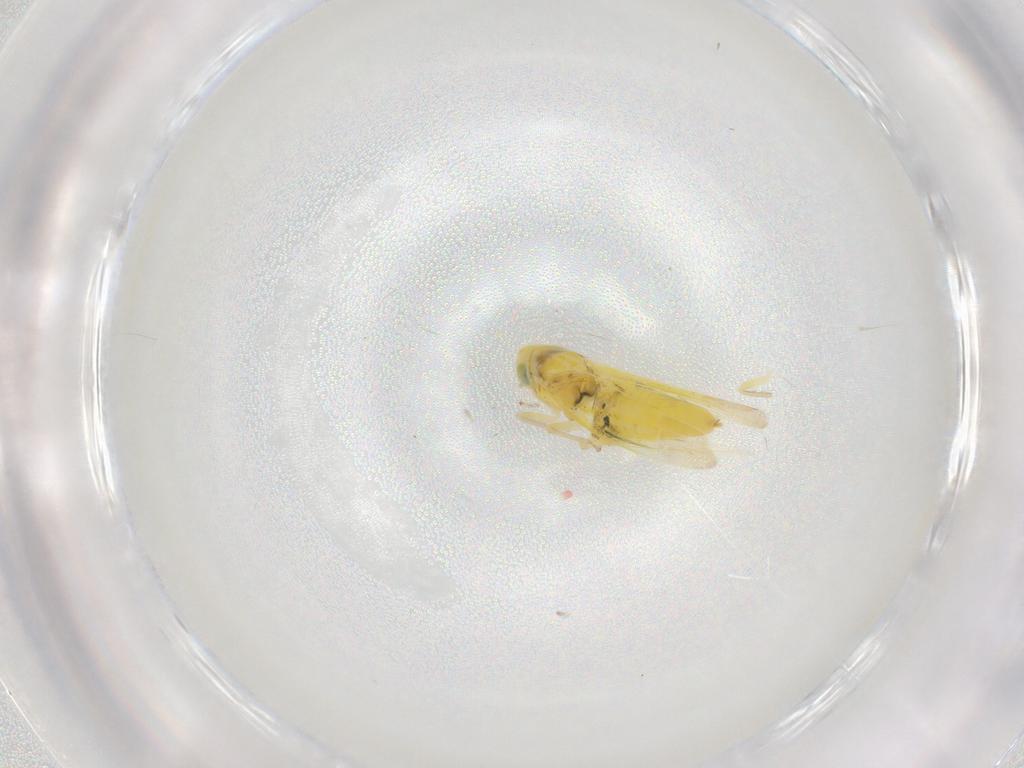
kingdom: Animalia
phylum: Arthropoda
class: Insecta
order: Hemiptera
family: Cicadellidae
